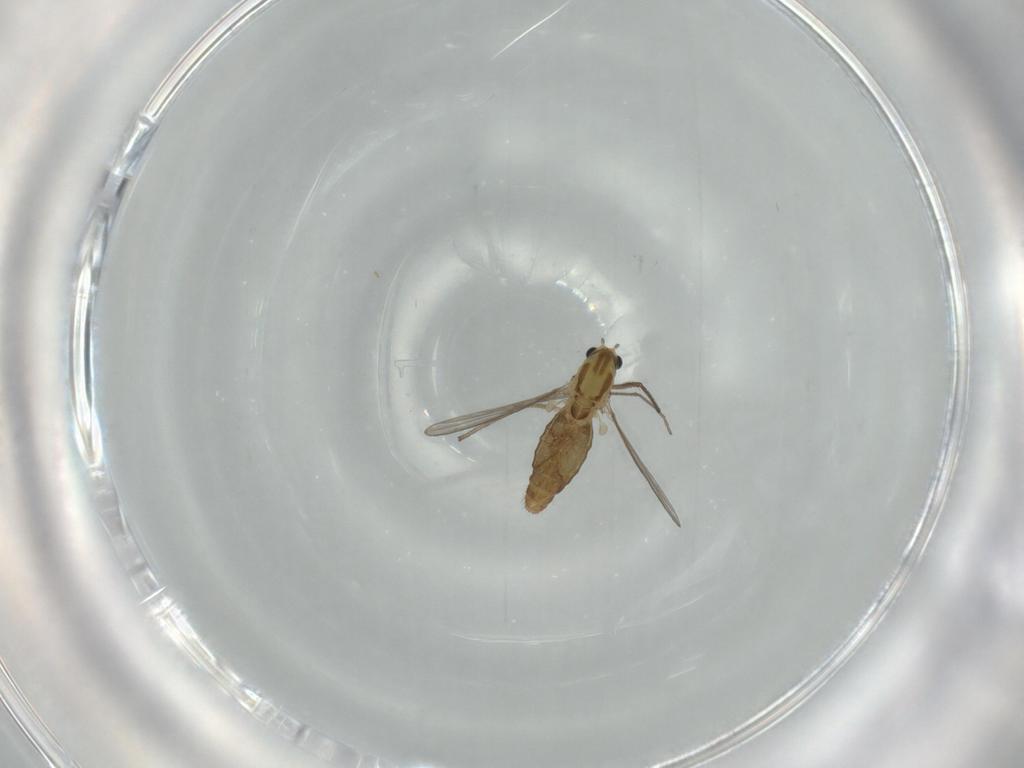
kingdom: Animalia
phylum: Arthropoda
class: Insecta
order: Diptera
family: Chironomidae
